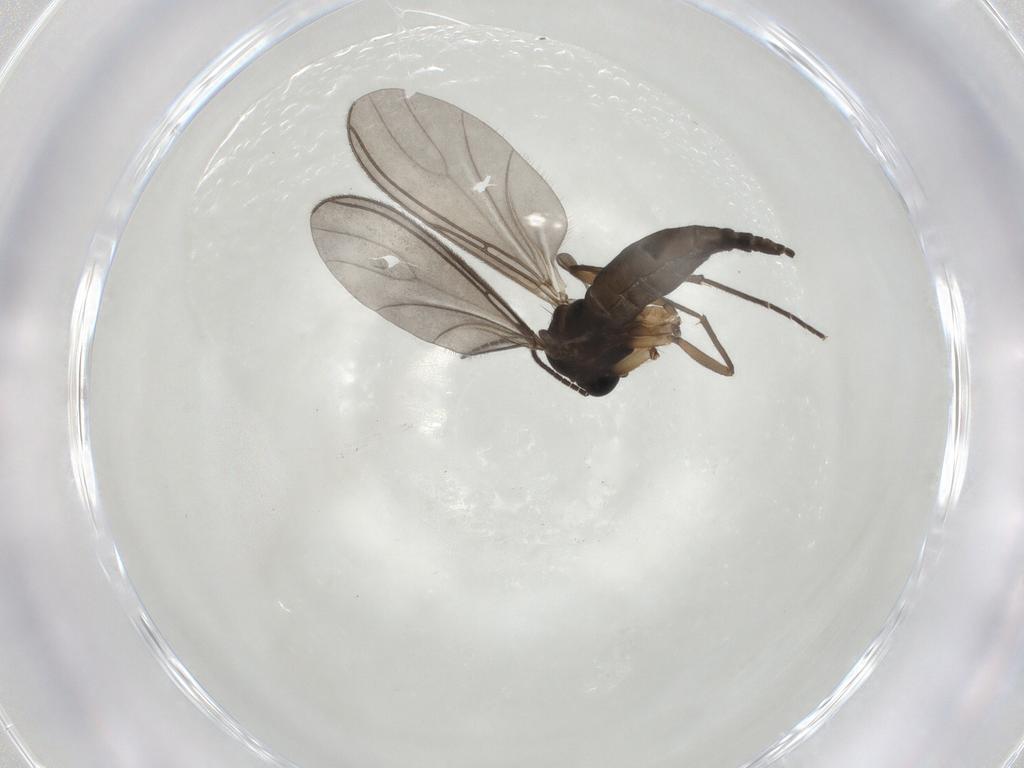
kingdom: Animalia
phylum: Arthropoda
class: Insecta
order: Diptera
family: Sciaridae
